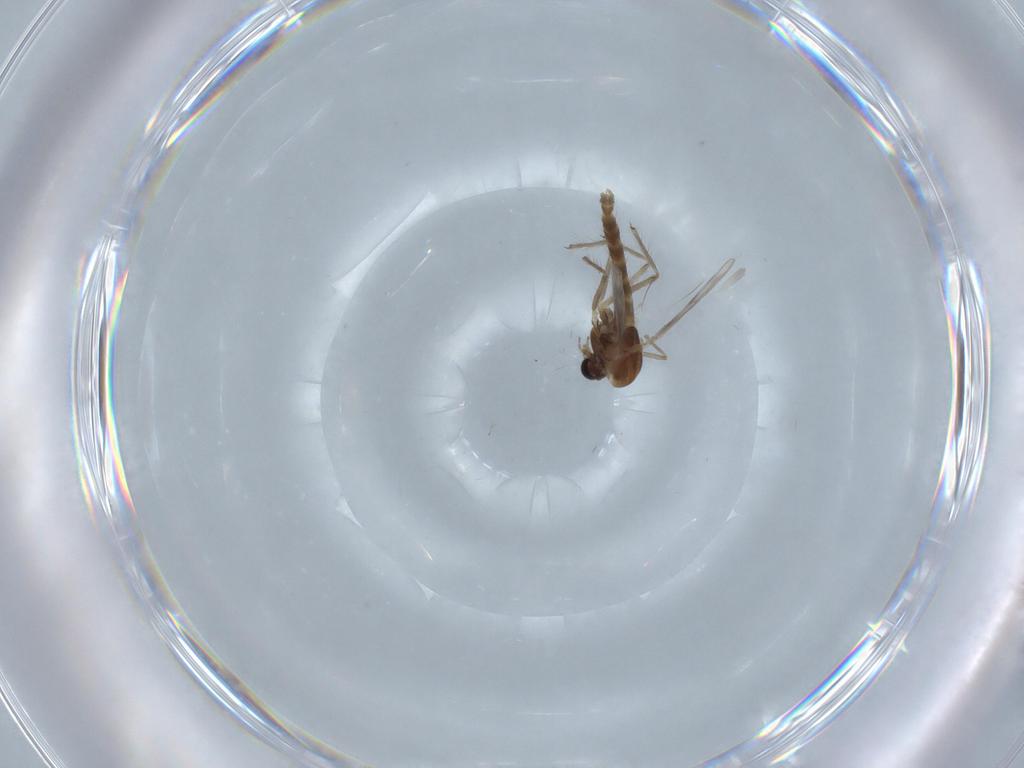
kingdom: Animalia
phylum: Arthropoda
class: Insecta
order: Diptera
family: Chironomidae
